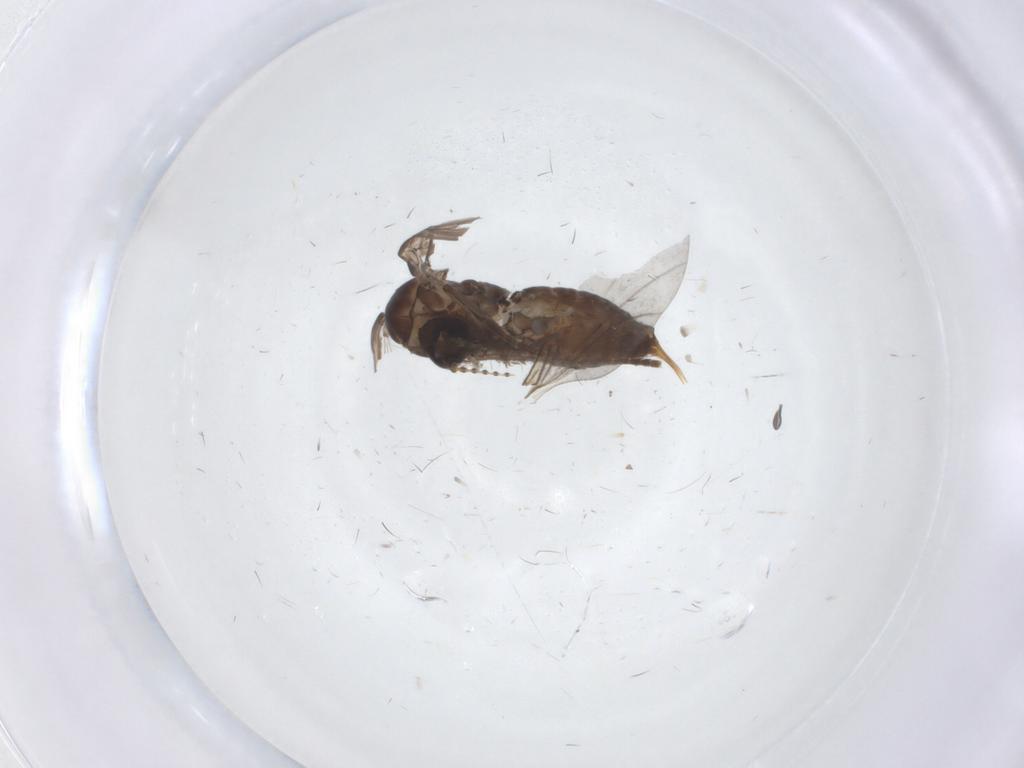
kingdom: Animalia
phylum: Arthropoda
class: Insecta
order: Diptera
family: Psychodidae
